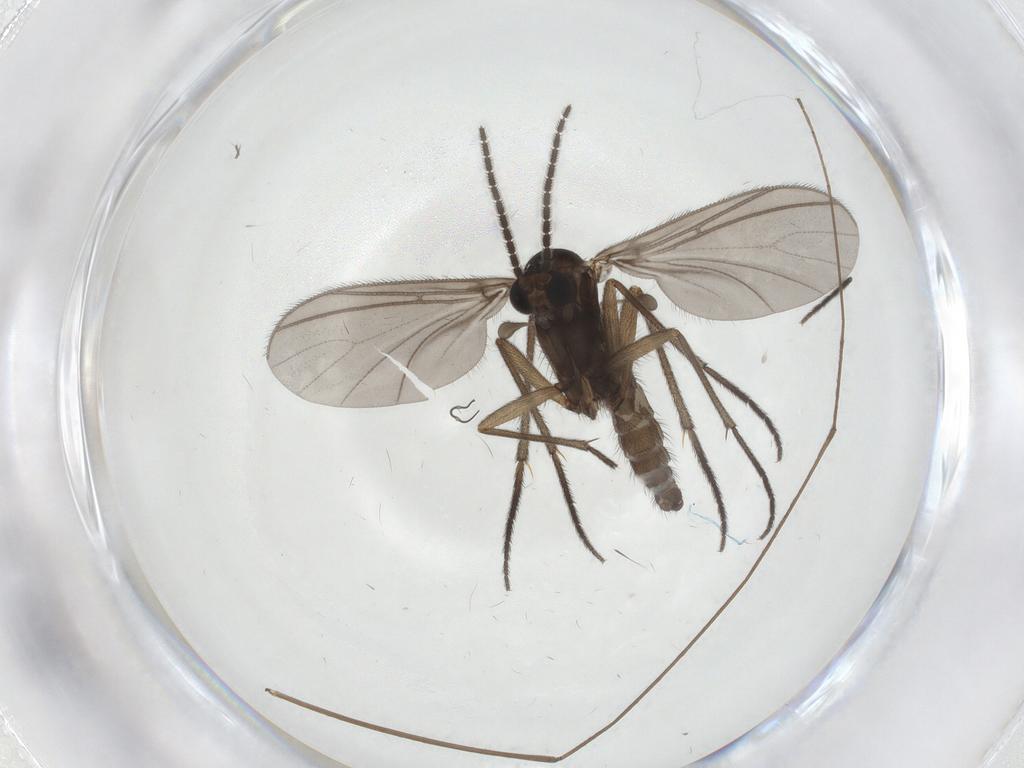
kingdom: Animalia
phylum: Arthropoda
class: Insecta
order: Diptera
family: Sciaridae
